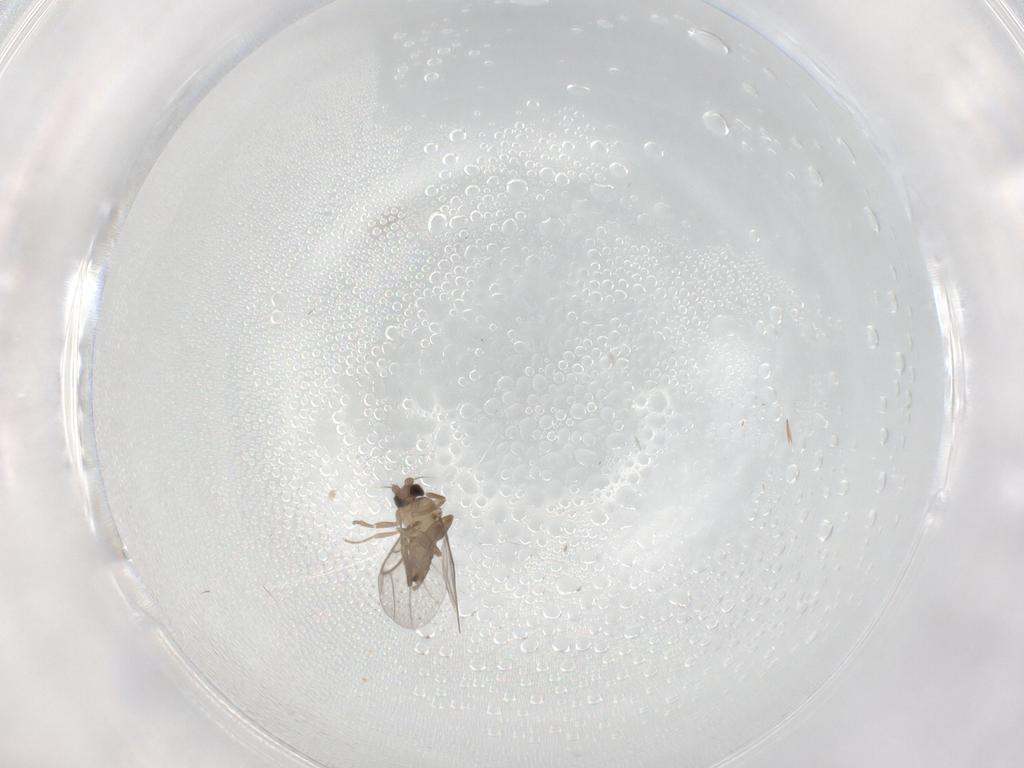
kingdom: Animalia
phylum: Arthropoda
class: Insecta
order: Diptera
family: Cecidomyiidae
